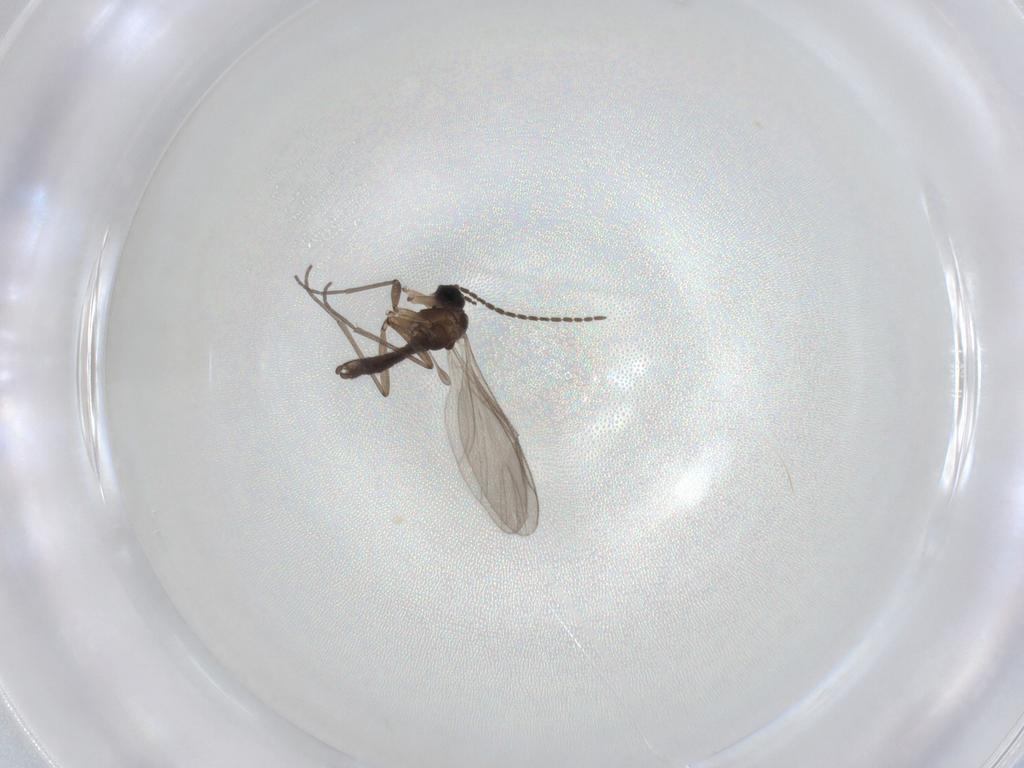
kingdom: Animalia
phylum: Arthropoda
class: Insecta
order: Diptera
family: Sciaridae
